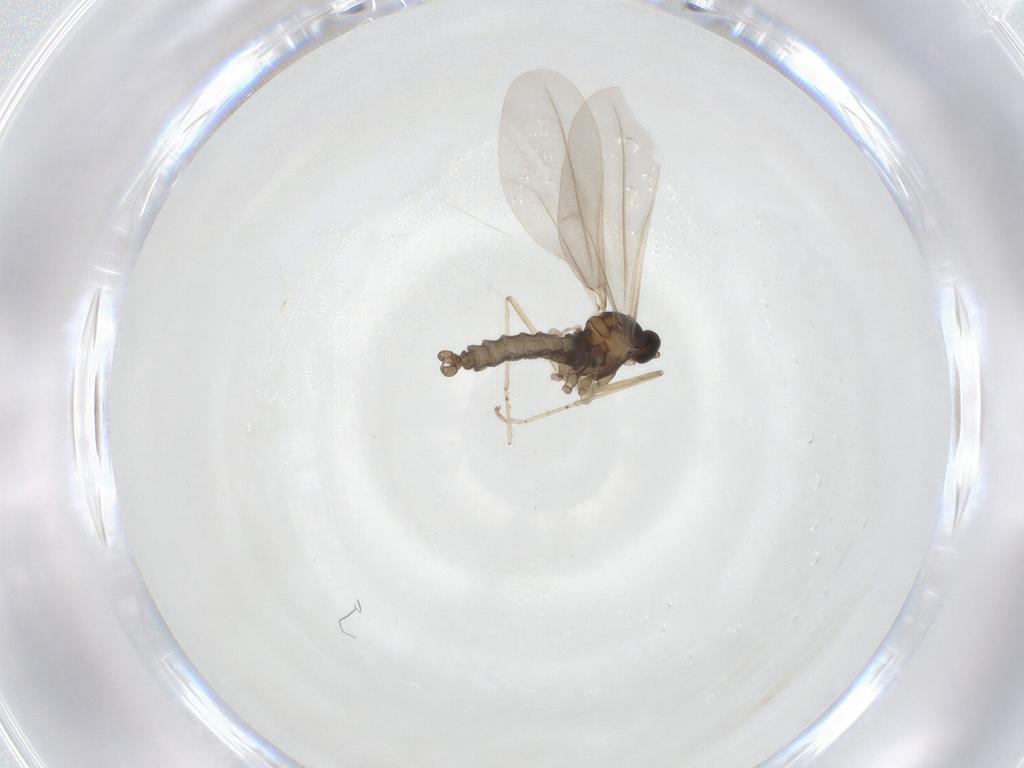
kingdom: Animalia
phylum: Arthropoda
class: Insecta
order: Diptera
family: Cecidomyiidae
